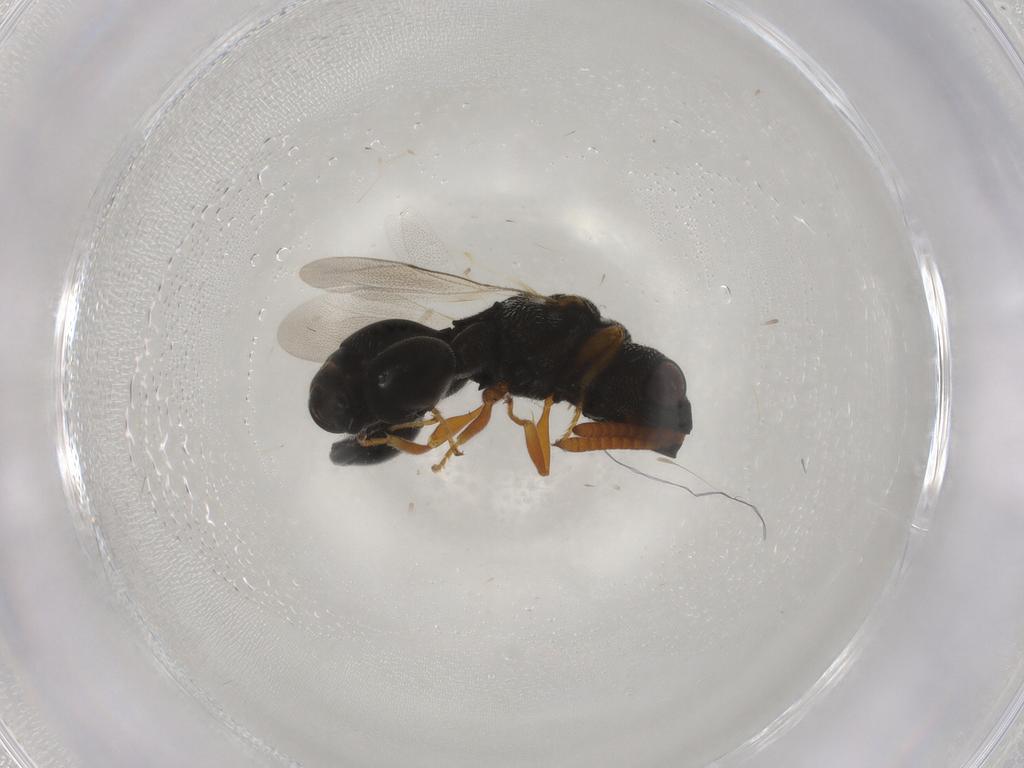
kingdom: Animalia
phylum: Arthropoda
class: Insecta
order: Hymenoptera
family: Chalcididae
